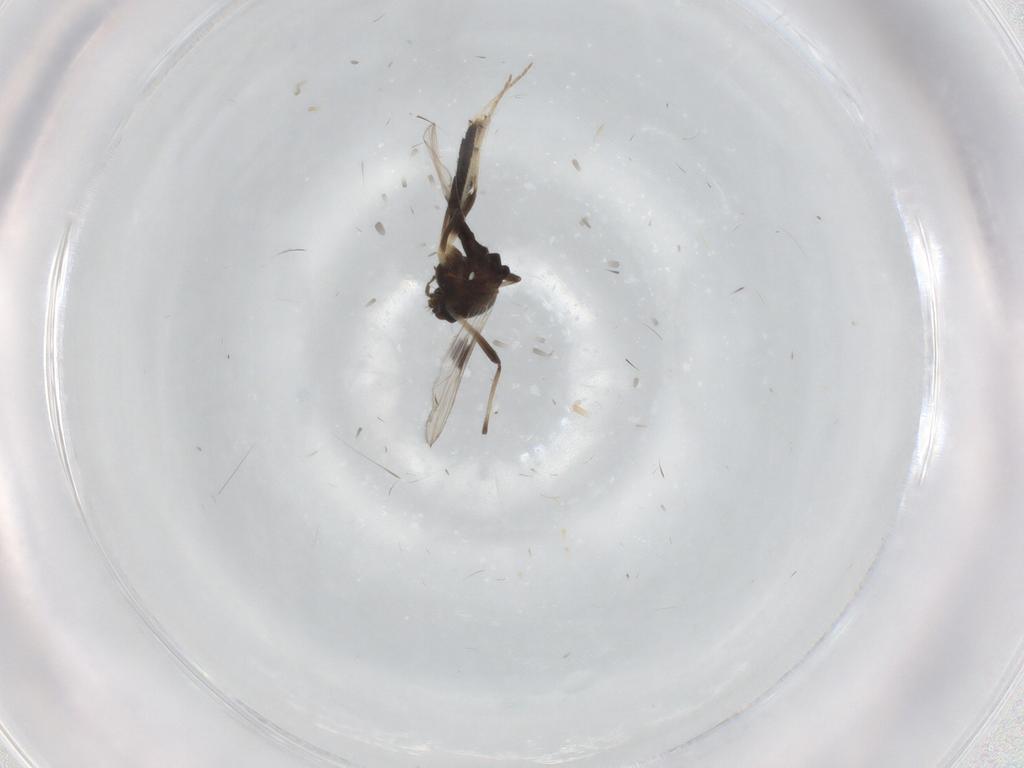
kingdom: Animalia
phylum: Arthropoda
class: Insecta
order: Diptera
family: Chironomidae
